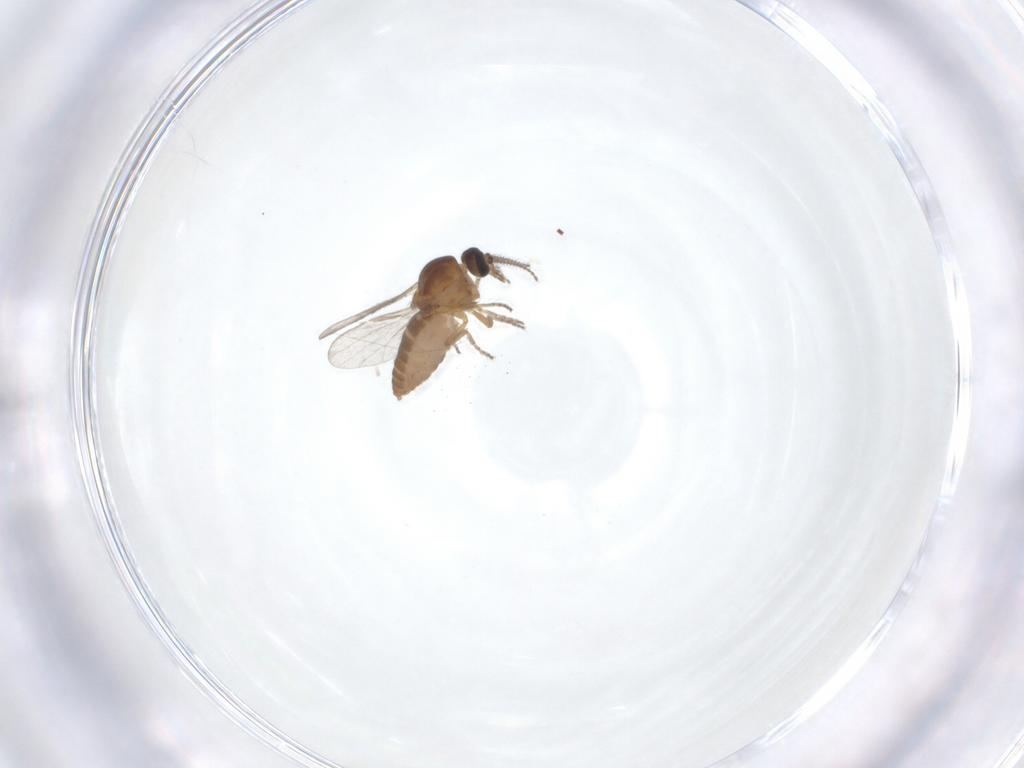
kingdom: Animalia
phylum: Arthropoda
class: Insecta
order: Diptera
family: Ceratopogonidae
